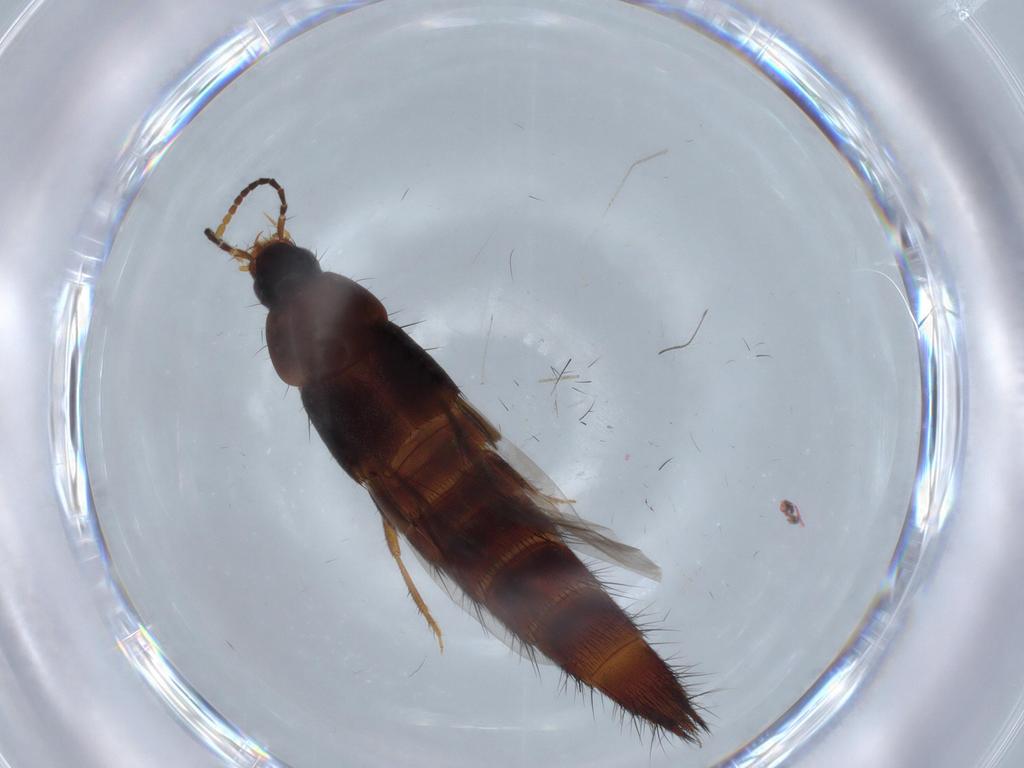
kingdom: Animalia
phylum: Arthropoda
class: Insecta
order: Coleoptera
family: Staphylinidae
